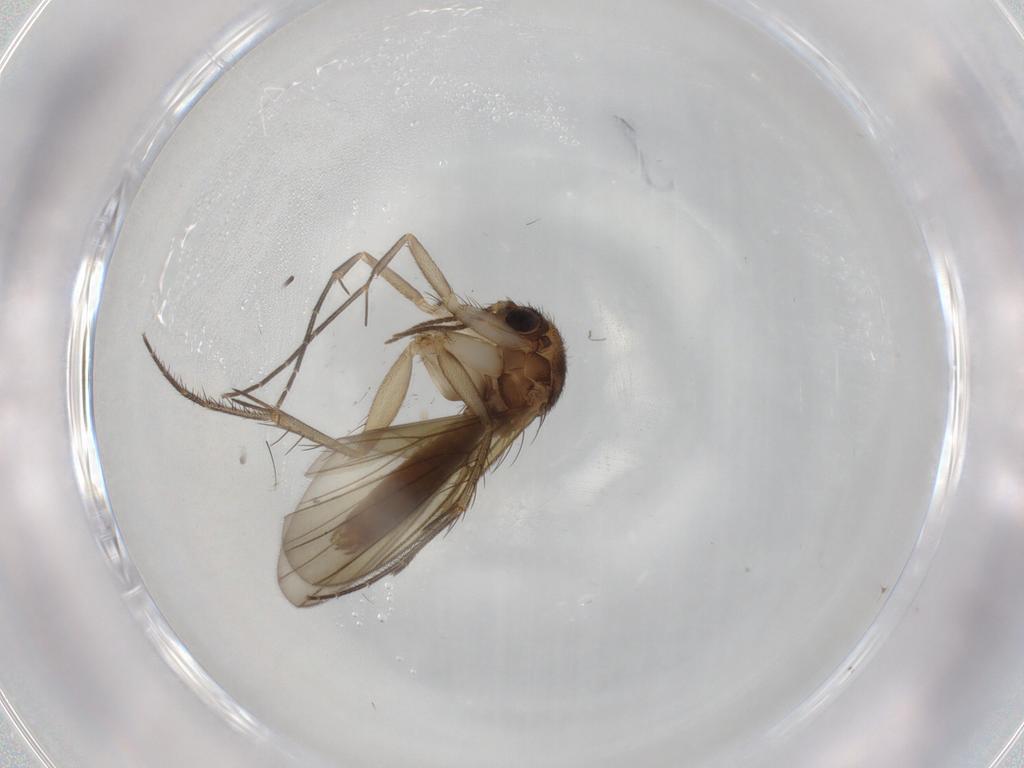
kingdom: Animalia
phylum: Arthropoda
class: Insecta
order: Diptera
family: Mycetophilidae
